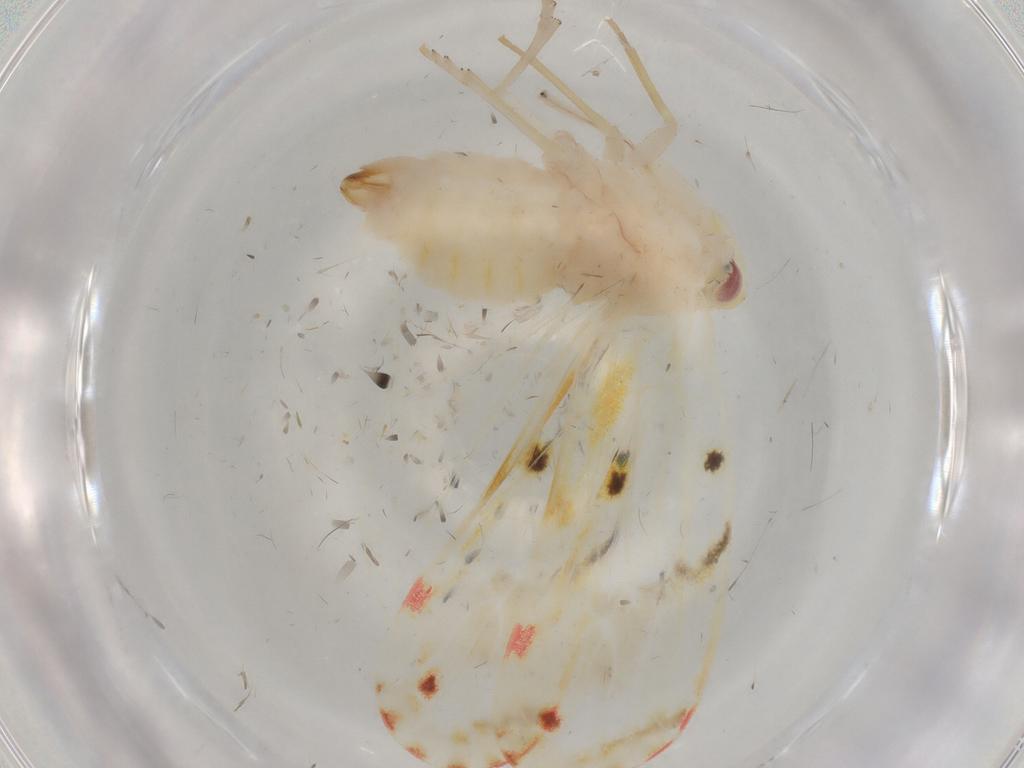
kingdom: Animalia
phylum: Arthropoda
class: Insecta
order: Hemiptera
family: Derbidae
